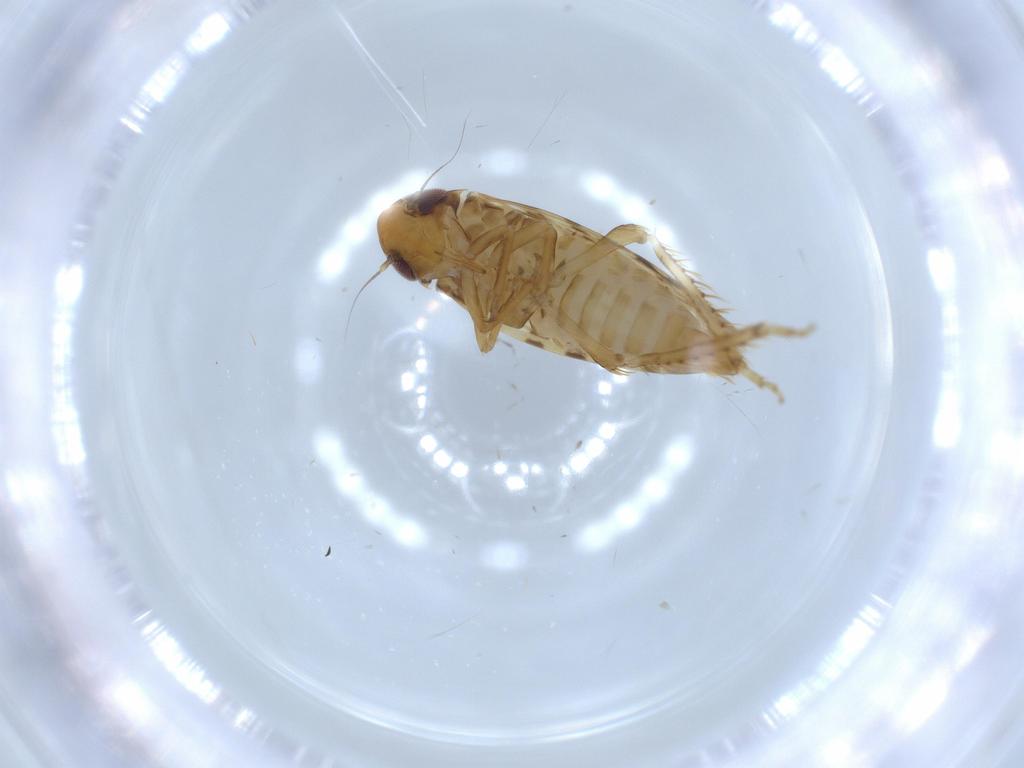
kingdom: Animalia
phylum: Arthropoda
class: Insecta
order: Hemiptera
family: Cicadellidae
